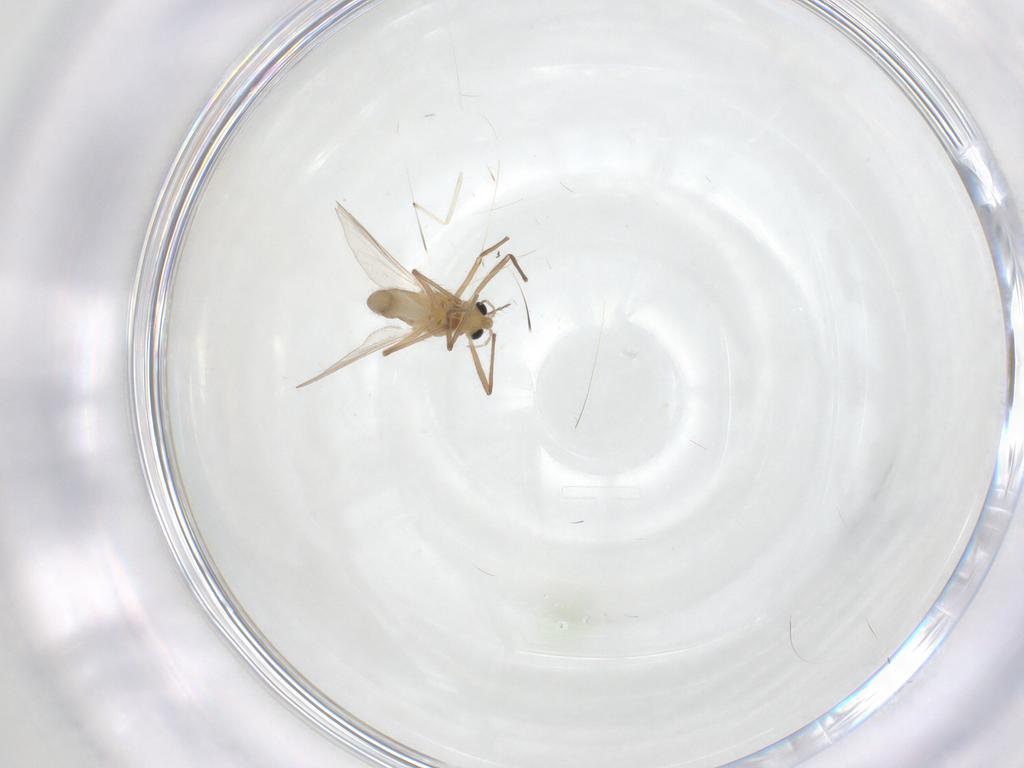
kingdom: Animalia
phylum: Arthropoda
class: Insecta
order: Diptera
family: Chironomidae
